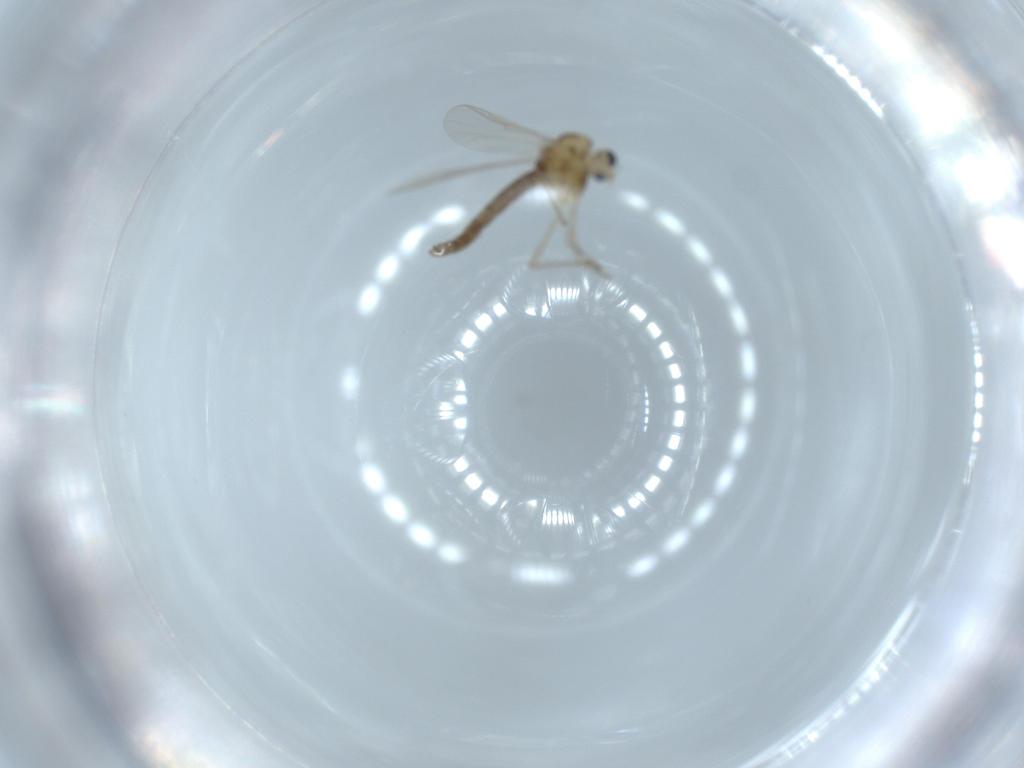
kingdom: Animalia
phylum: Arthropoda
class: Insecta
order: Diptera
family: Chironomidae
